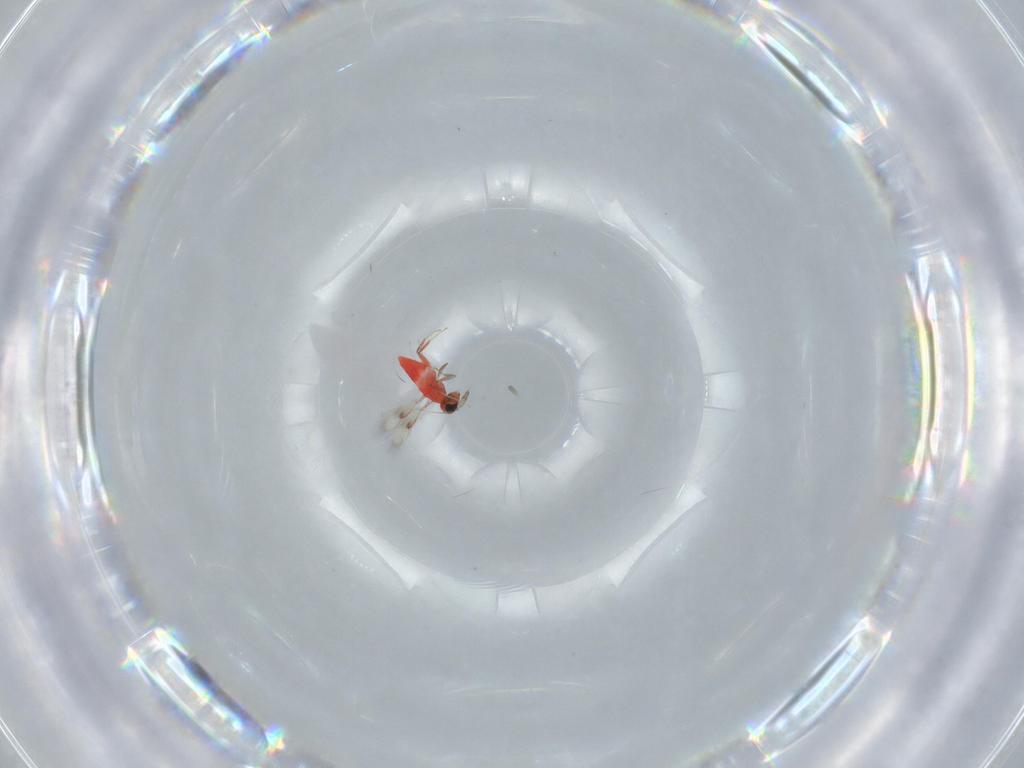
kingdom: Animalia
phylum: Arthropoda
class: Insecta
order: Hymenoptera
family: Trichogrammatidae
